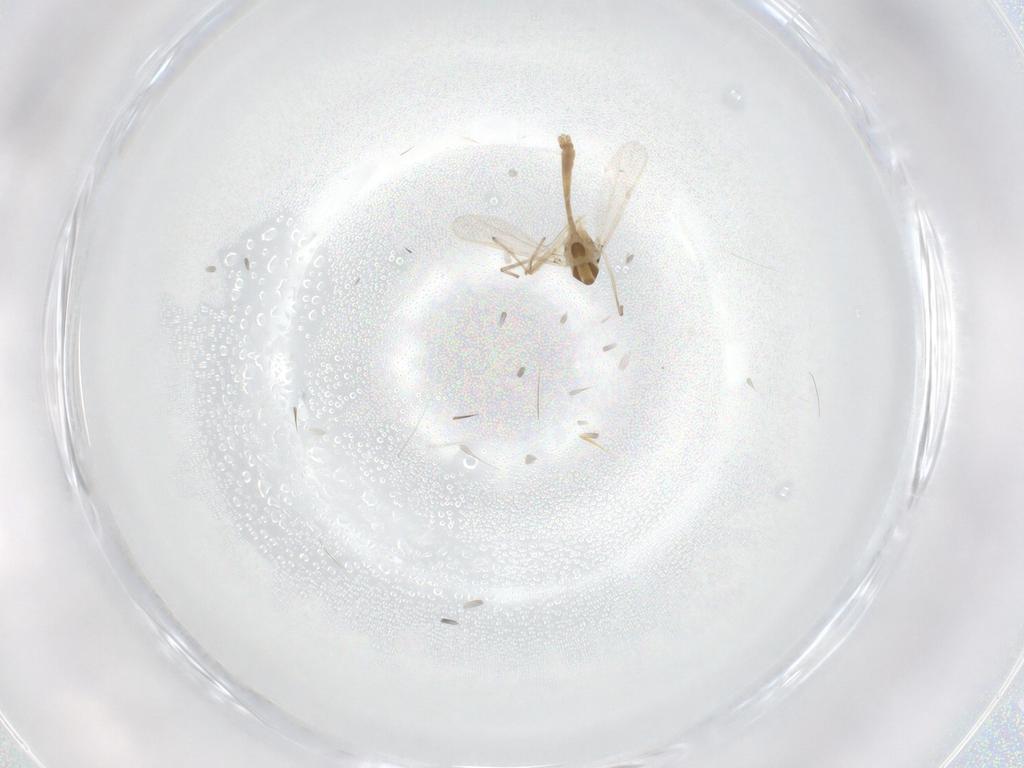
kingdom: Animalia
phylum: Arthropoda
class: Insecta
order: Diptera
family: Chironomidae
